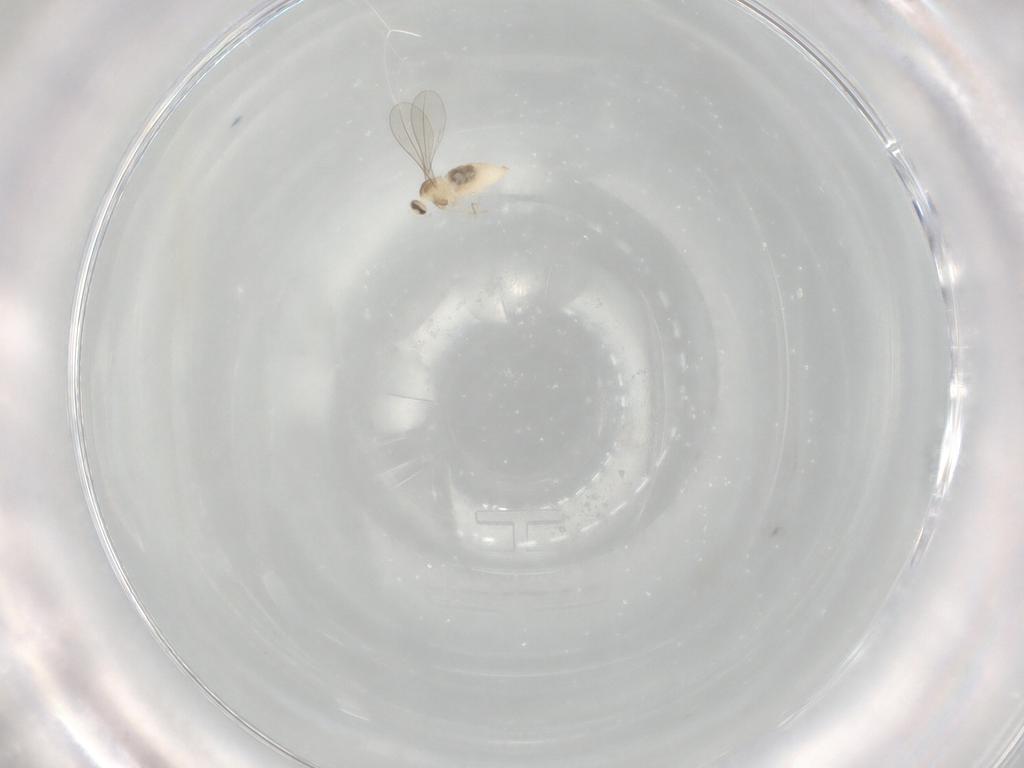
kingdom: Animalia
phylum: Arthropoda
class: Insecta
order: Diptera
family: Cecidomyiidae
